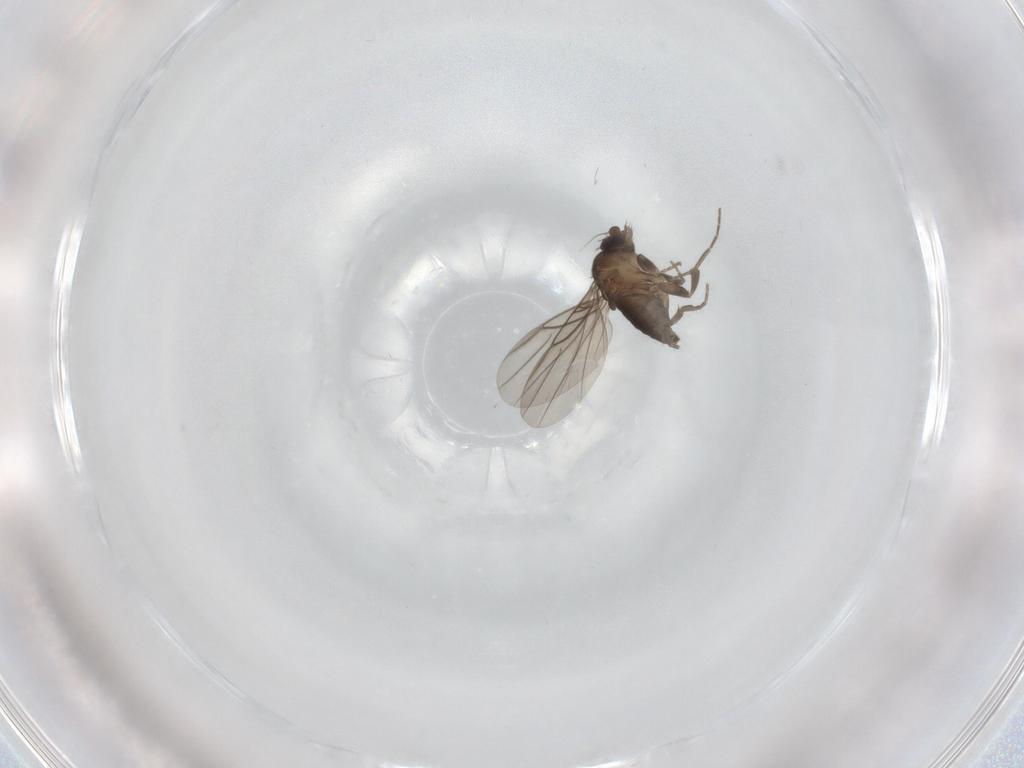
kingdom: Animalia
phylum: Arthropoda
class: Insecta
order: Diptera
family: Phoridae
